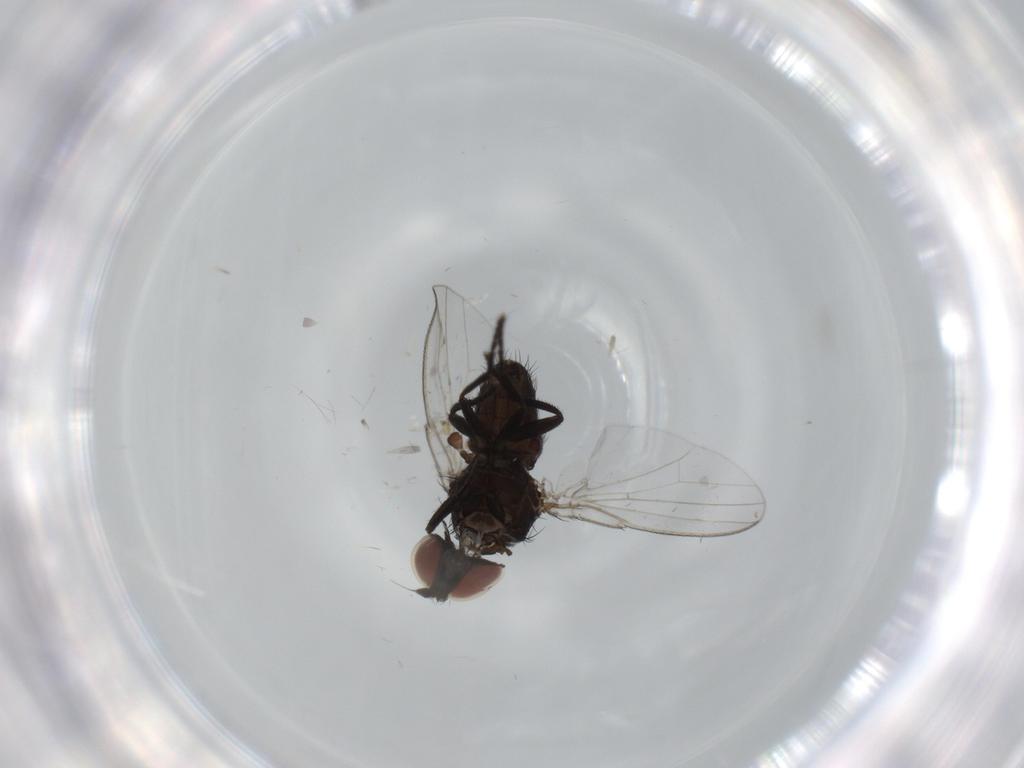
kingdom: Animalia
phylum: Arthropoda
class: Insecta
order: Diptera
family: Milichiidae
